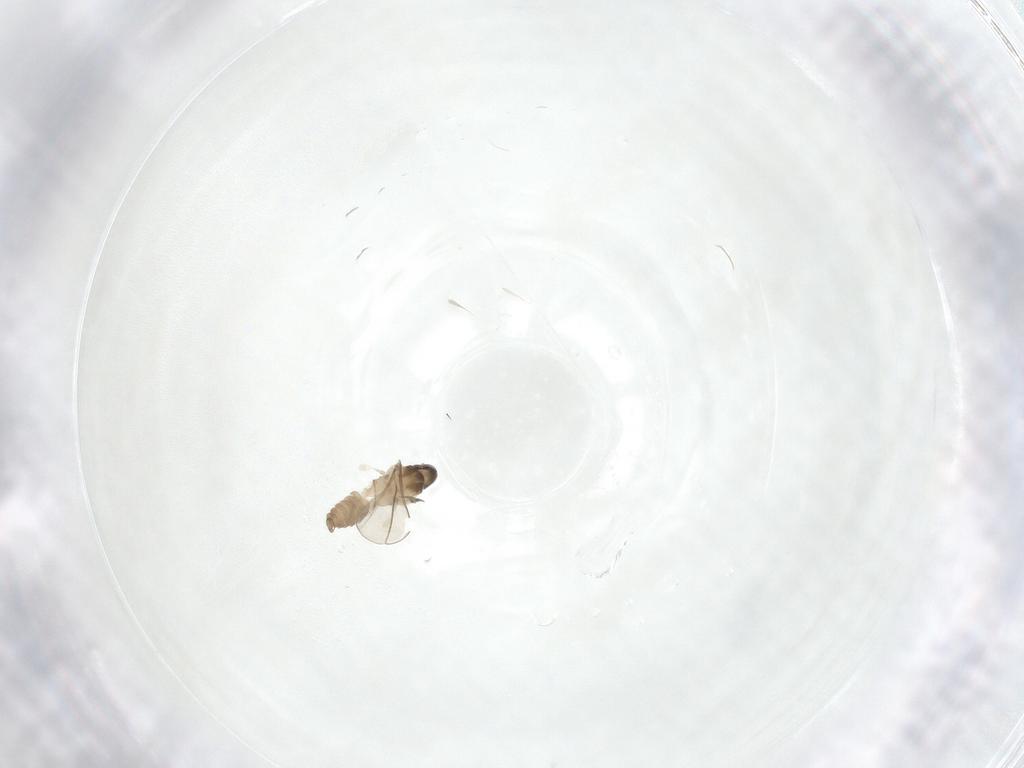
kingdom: Animalia
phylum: Arthropoda
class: Insecta
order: Diptera
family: Cecidomyiidae
